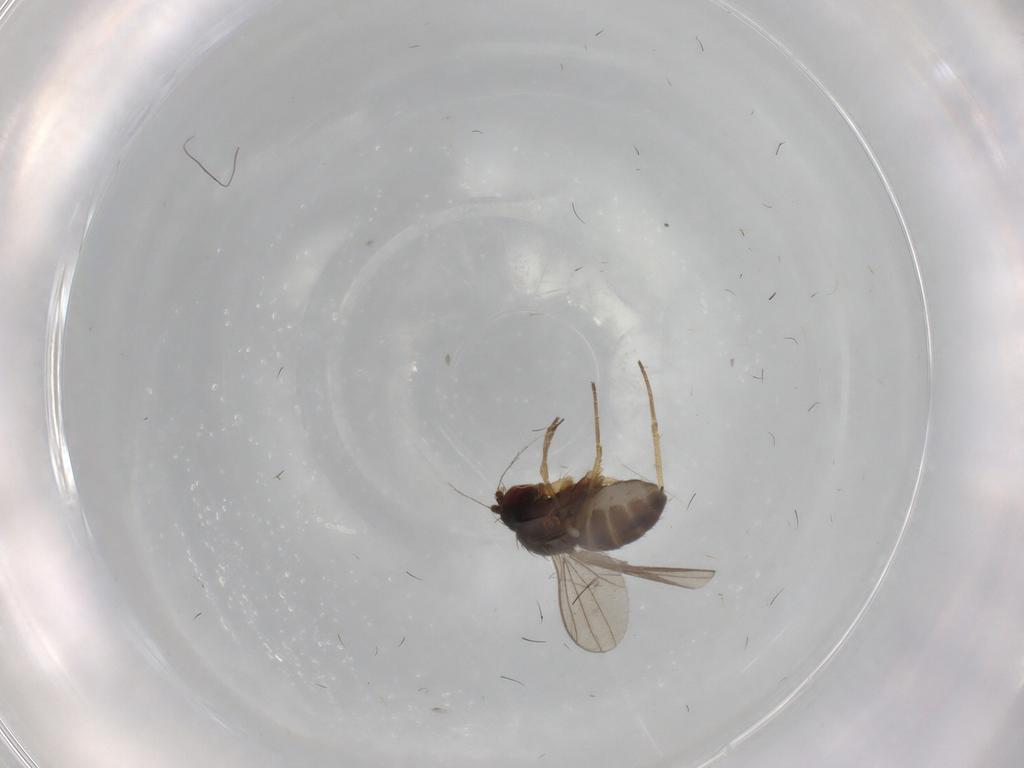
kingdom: Animalia
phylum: Arthropoda
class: Insecta
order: Diptera
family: Dolichopodidae
